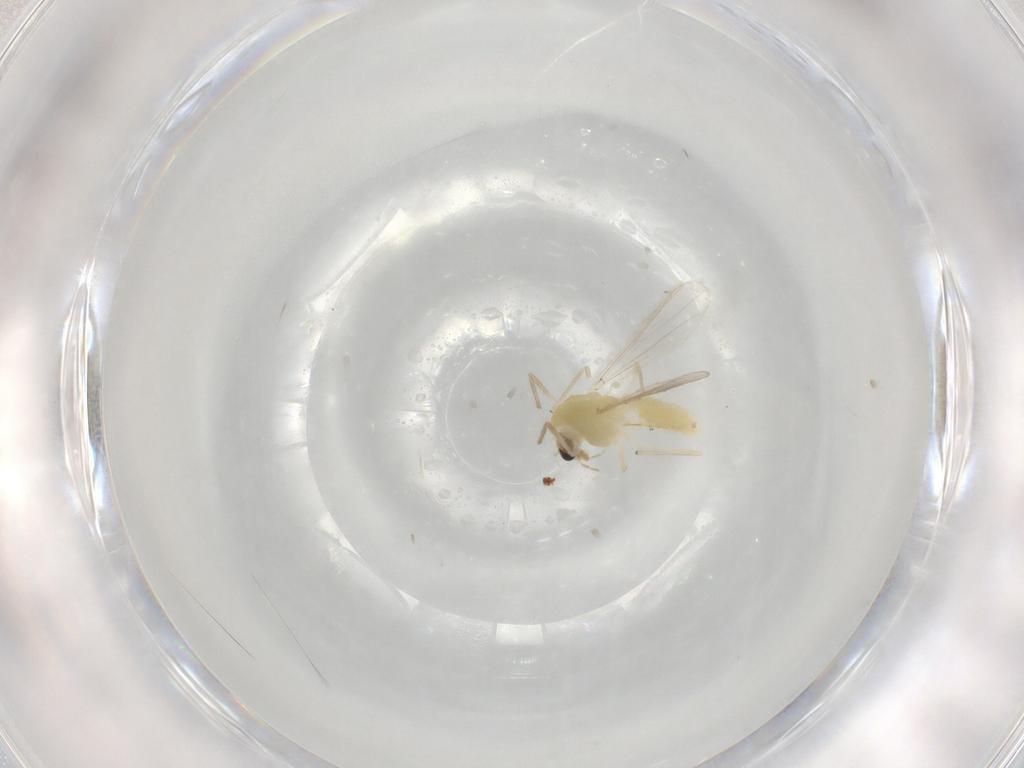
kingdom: Animalia
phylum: Arthropoda
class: Insecta
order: Diptera
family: Chironomidae
